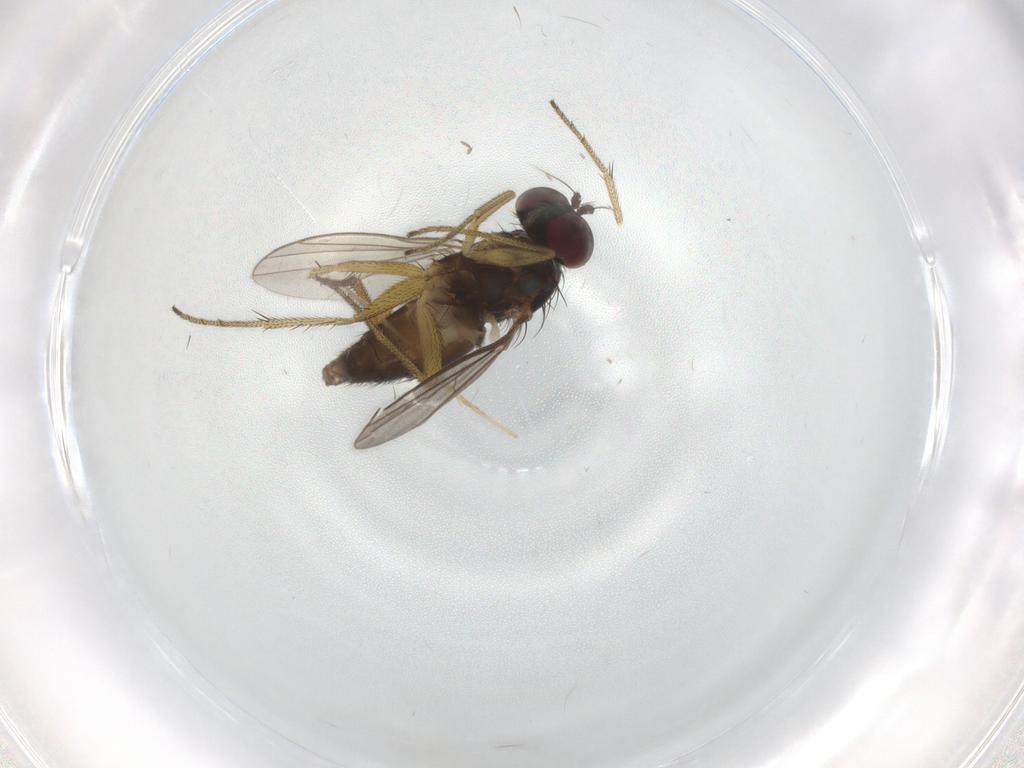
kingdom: Animalia
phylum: Arthropoda
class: Insecta
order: Diptera
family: Dolichopodidae
